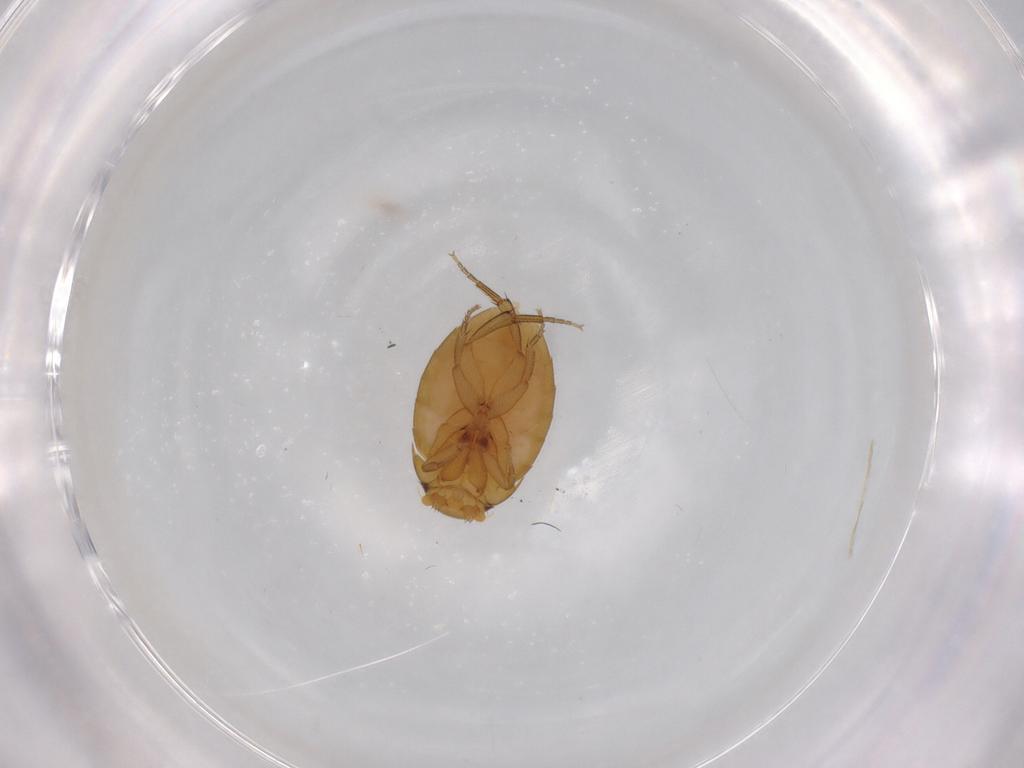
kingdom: Animalia
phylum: Arthropoda
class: Insecta
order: Diptera
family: Phoridae
